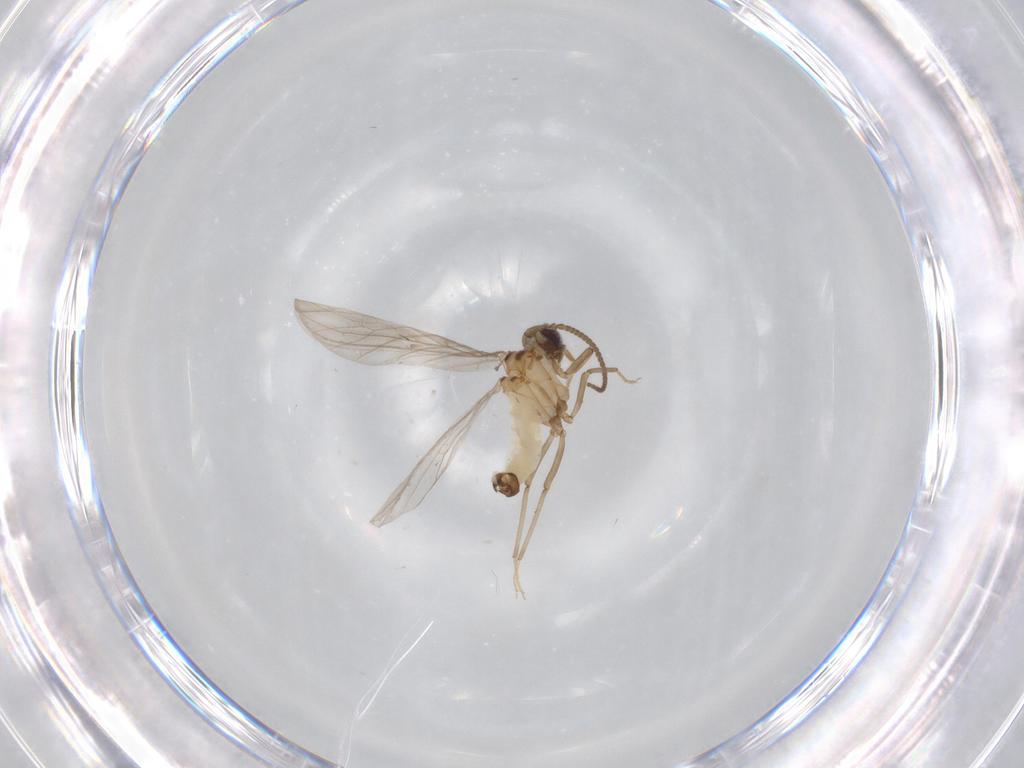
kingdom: Animalia
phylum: Arthropoda
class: Insecta
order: Neuroptera
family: Coniopterygidae
